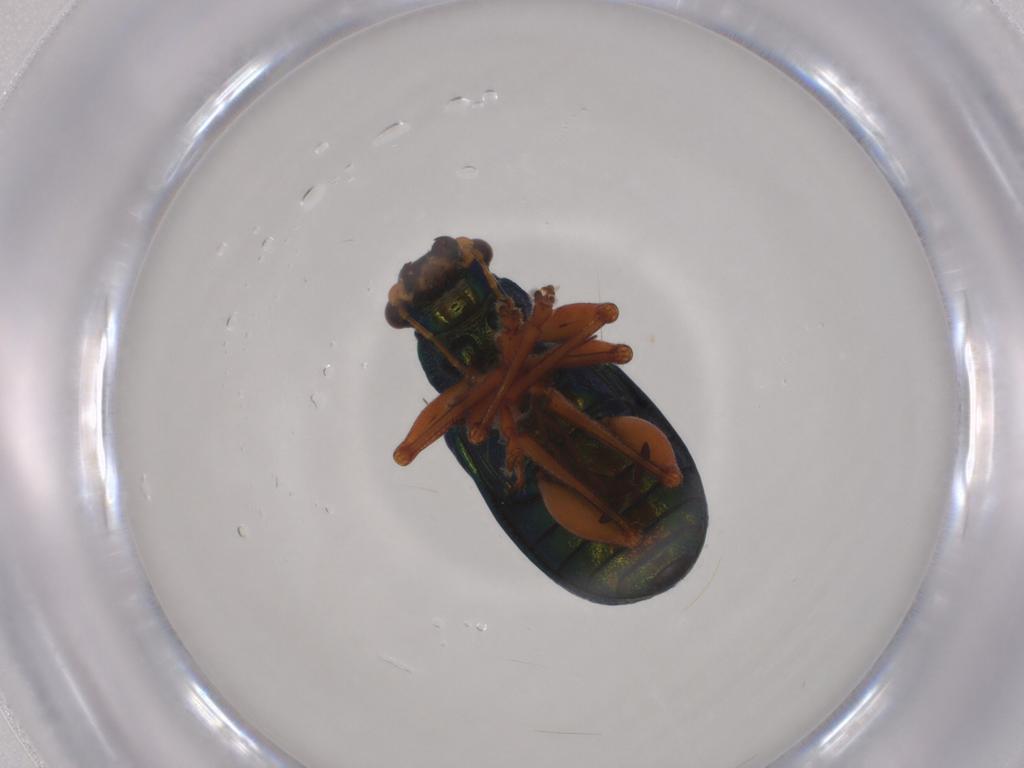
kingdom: Animalia
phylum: Arthropoda
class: Insecta
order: Coleoptera
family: Chrysomelidae
